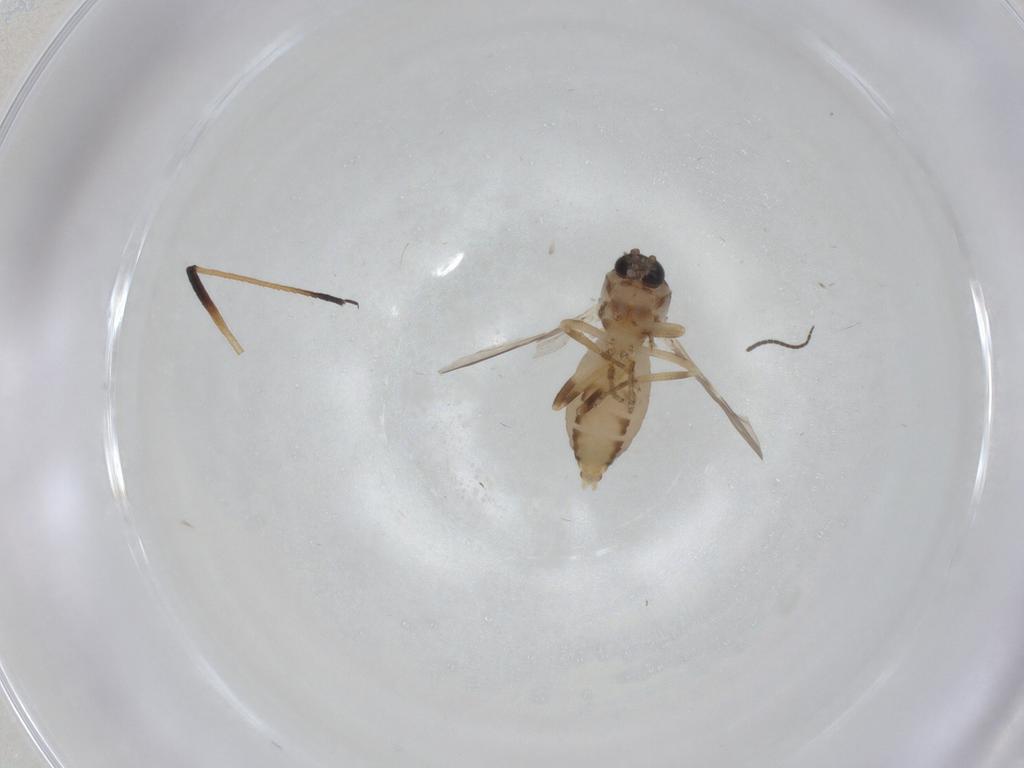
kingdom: Animalia
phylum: Arthropoda
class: Insecta
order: Diptera
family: Ceratopogonidae
